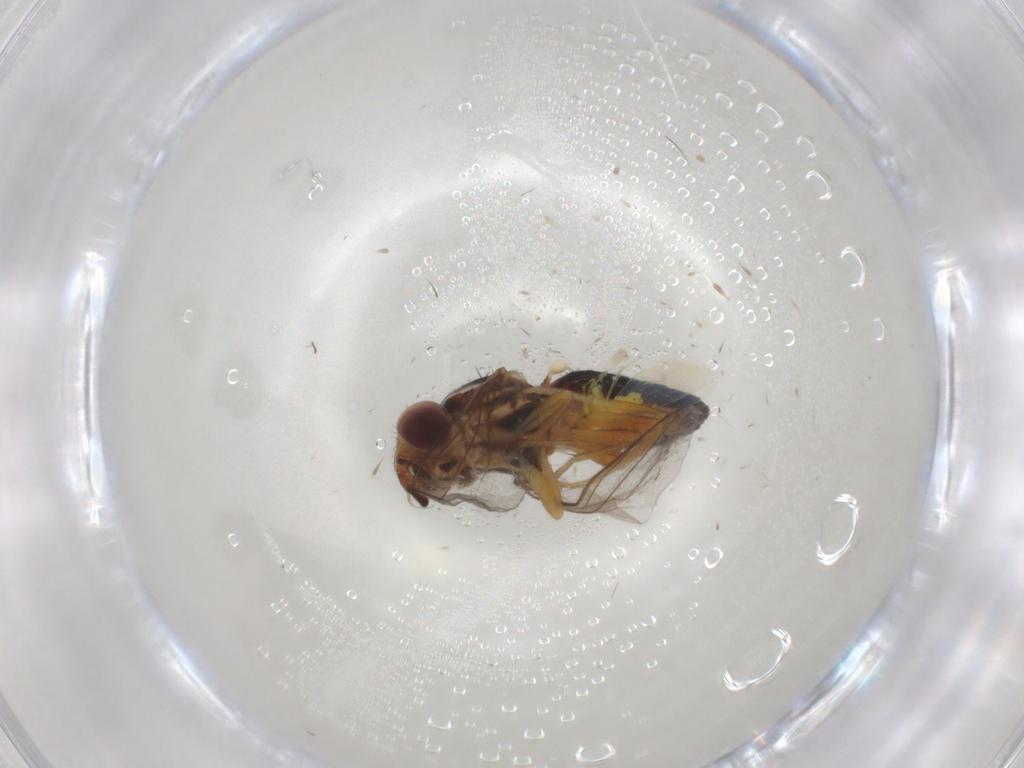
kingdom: Animalia
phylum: Arthropoda
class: Insecta
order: Diptera
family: Chloropidae
